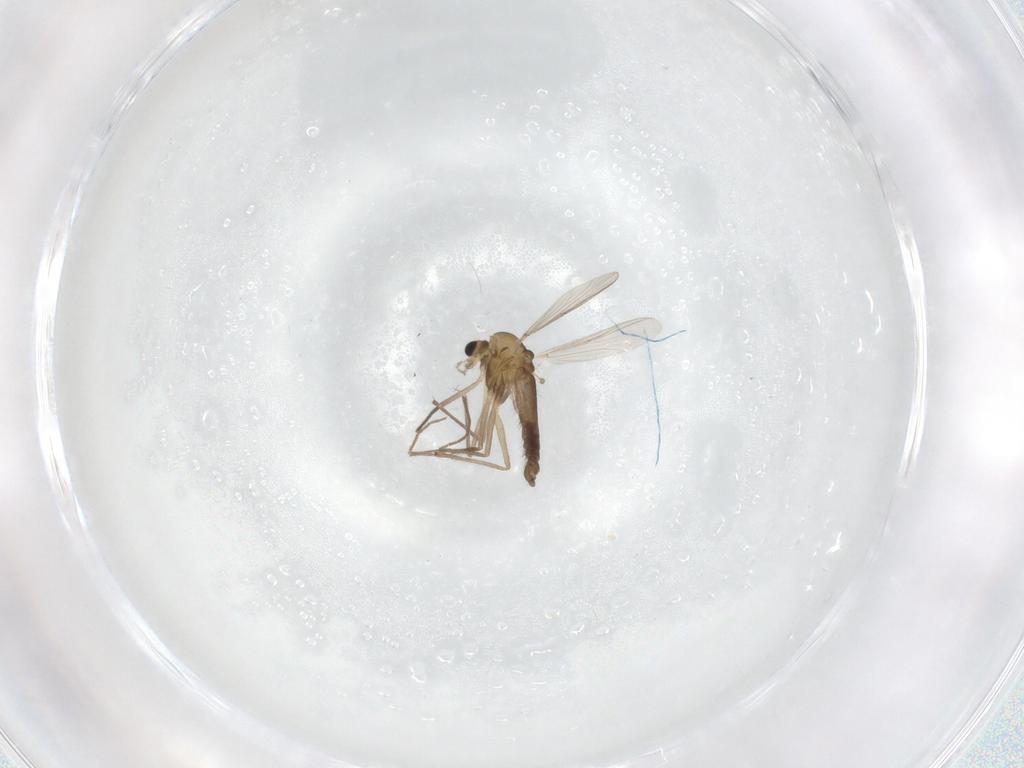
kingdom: Animalia
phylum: Arthropoda
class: Insecta
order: Diptera
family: Chironomidae
